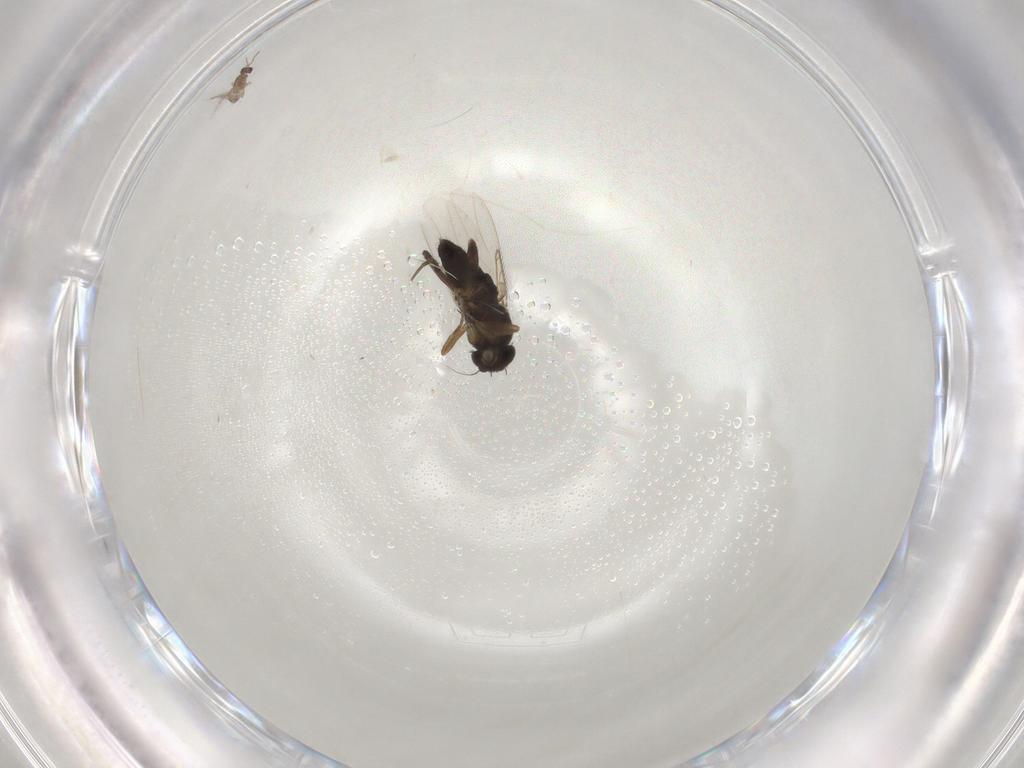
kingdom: Animalia
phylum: Arthropoda
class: Insecta
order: Diptera
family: Phoridae
